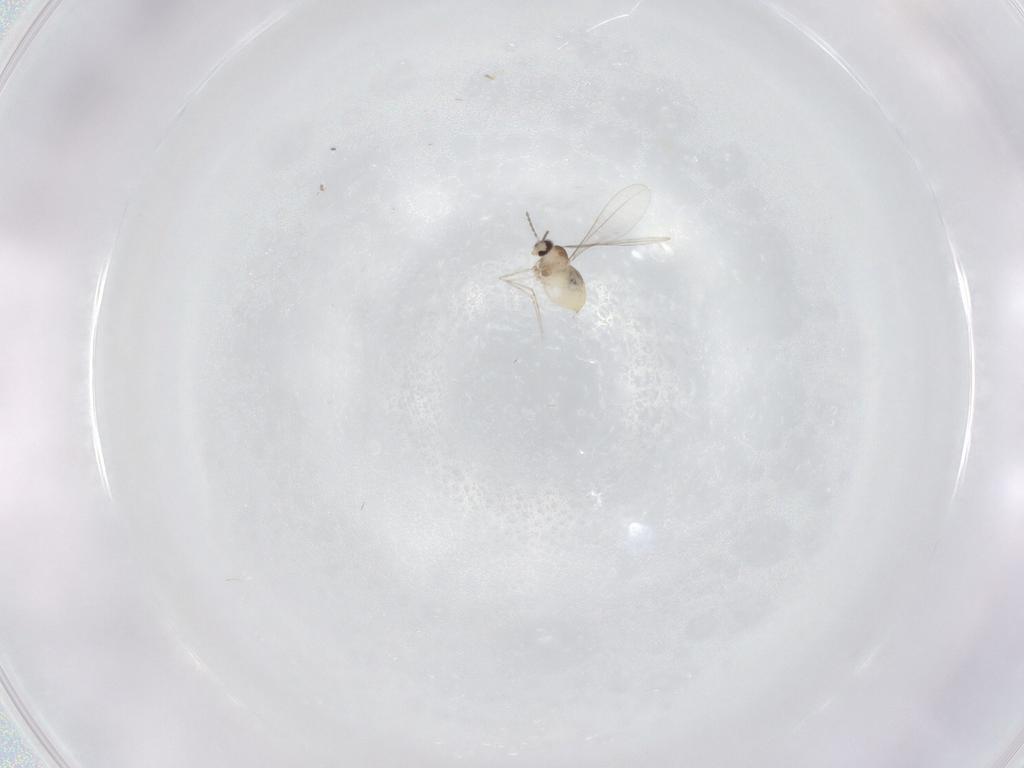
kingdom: Animalia
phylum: Arthropoda
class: Insecta
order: Diptera
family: Cecidomyiidae
